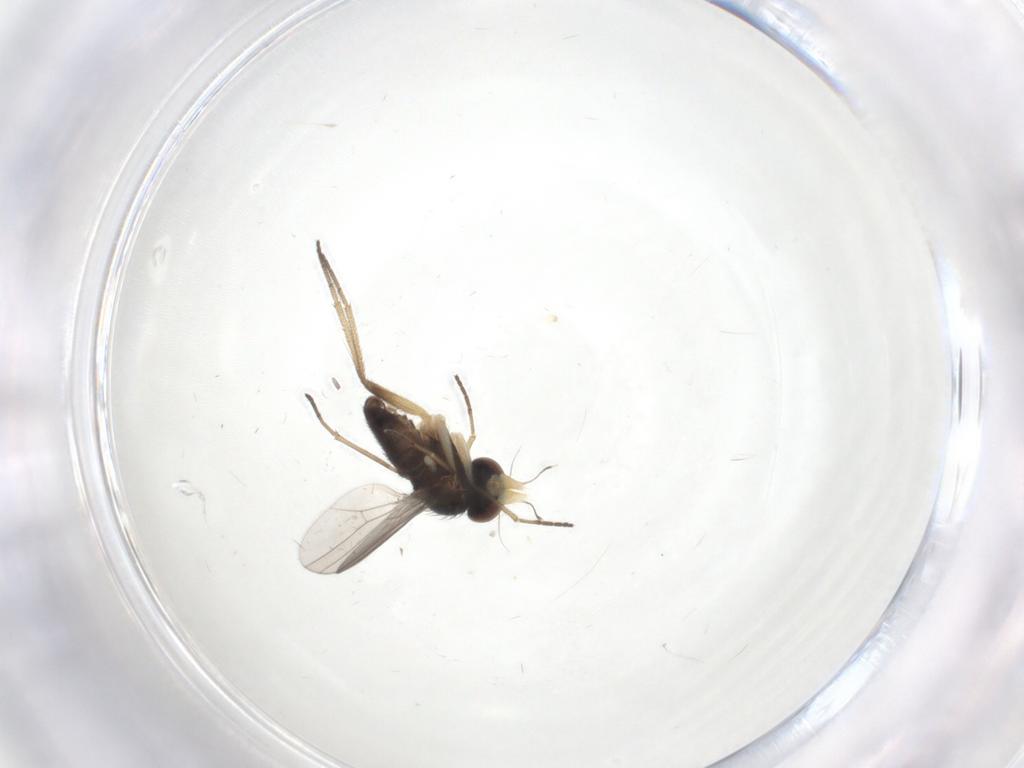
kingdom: Animalia
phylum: Arthropoda
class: Insecta
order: Diptera
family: Dolichopodidae
